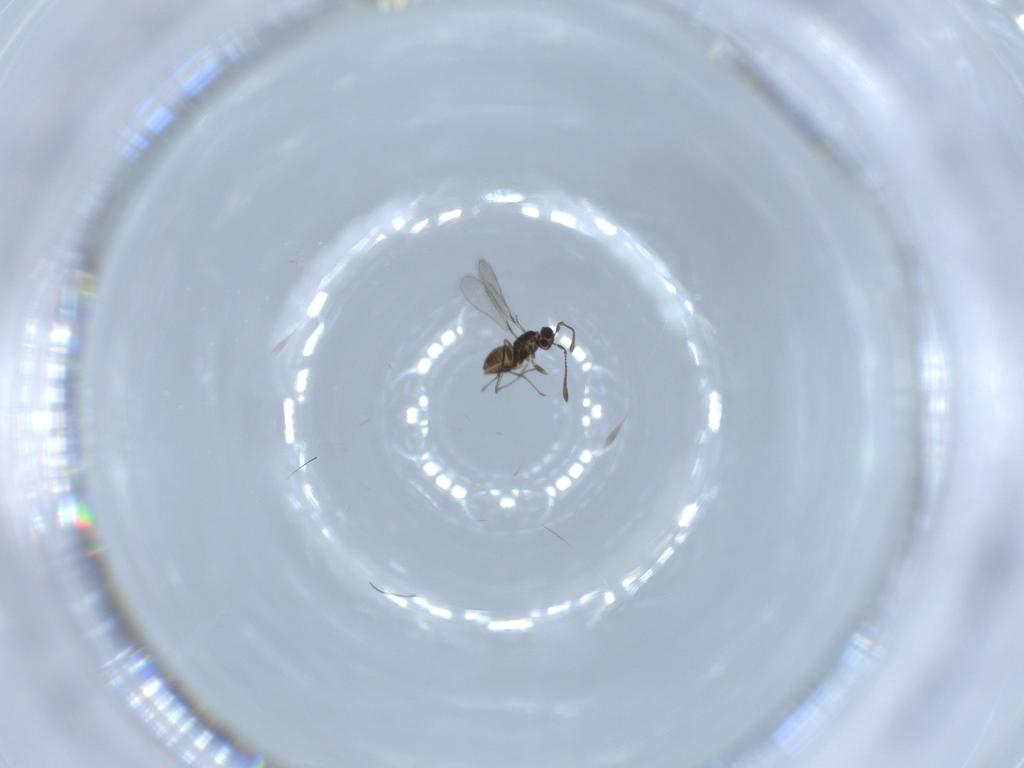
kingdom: Animalia
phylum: Arthropoda
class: Insecta
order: Hymenoptera
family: Mymaridae
